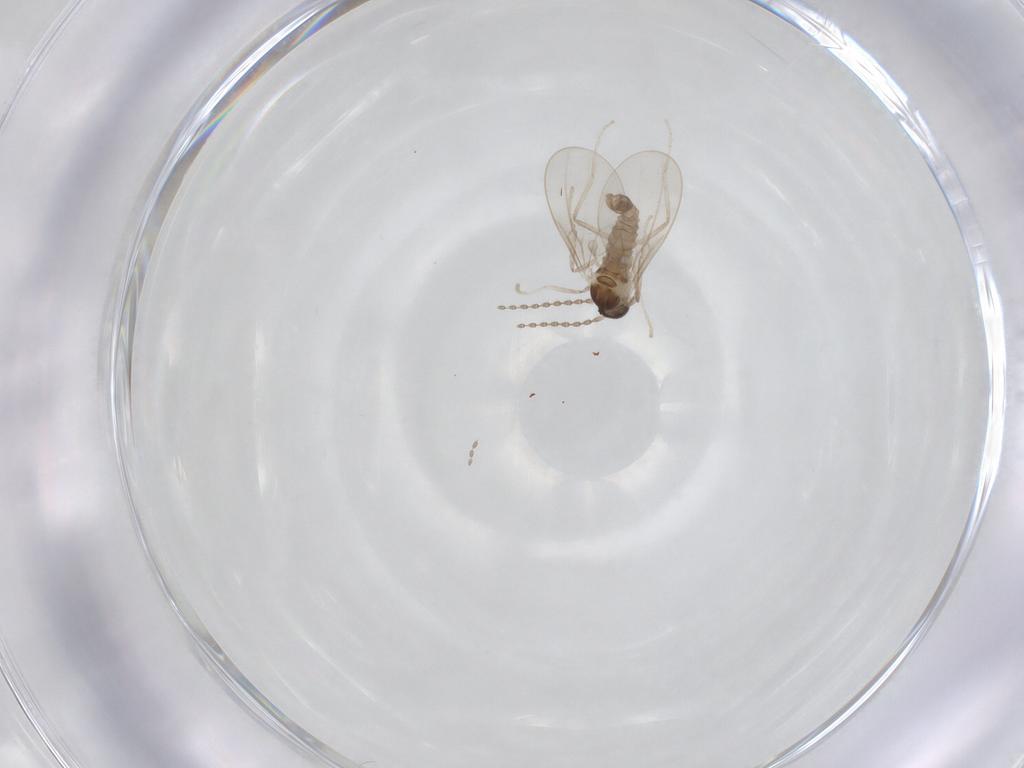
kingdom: Animalia
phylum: Arthropoda
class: Insecta
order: Diptera
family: Cecidomyiidae
